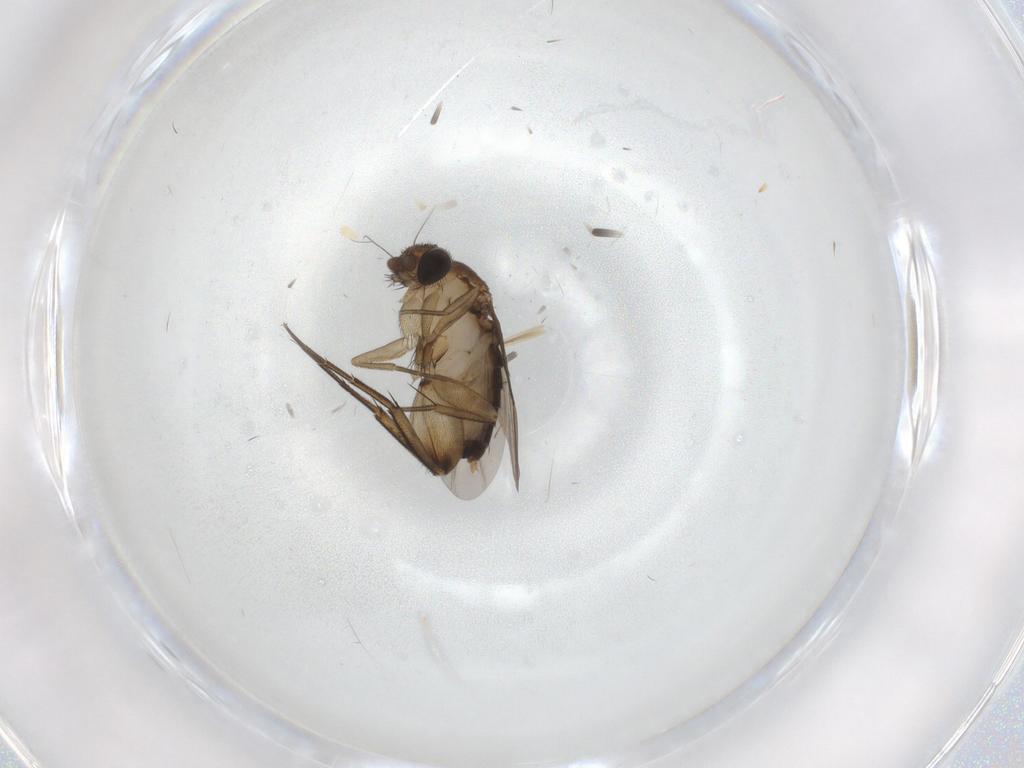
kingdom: Animalia
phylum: Arthropoda
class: Insecta
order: Diptera
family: Phoridae
